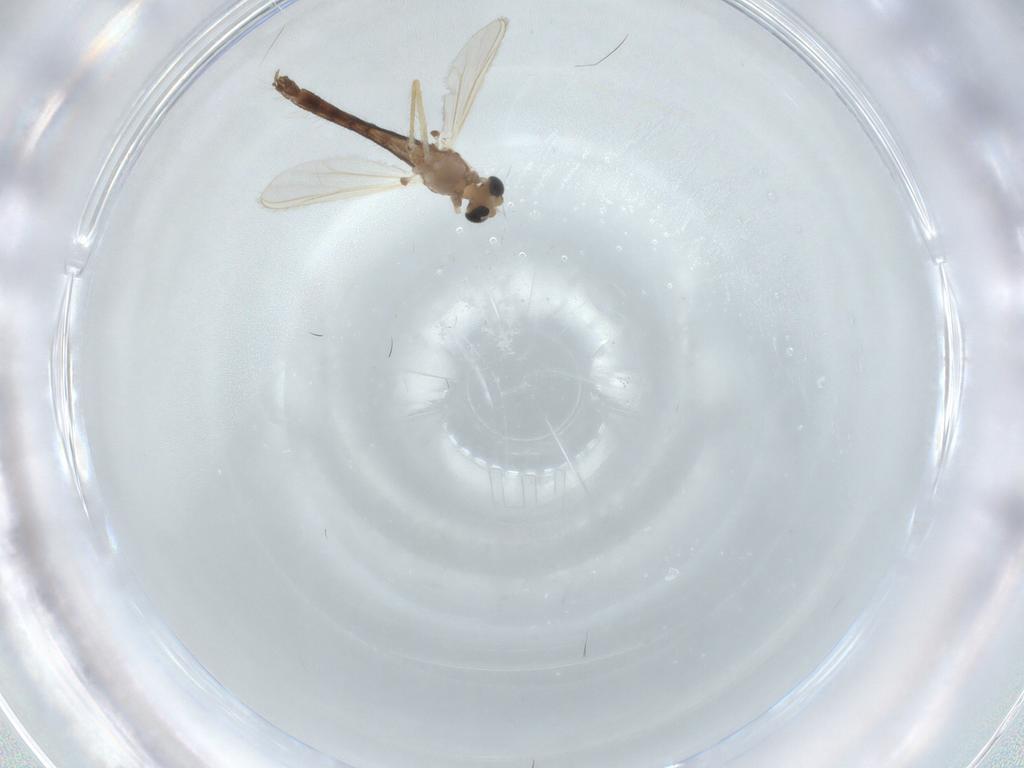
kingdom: Animalia
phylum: Arthropoda
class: Insecta
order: Diptera
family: Chironomidae
